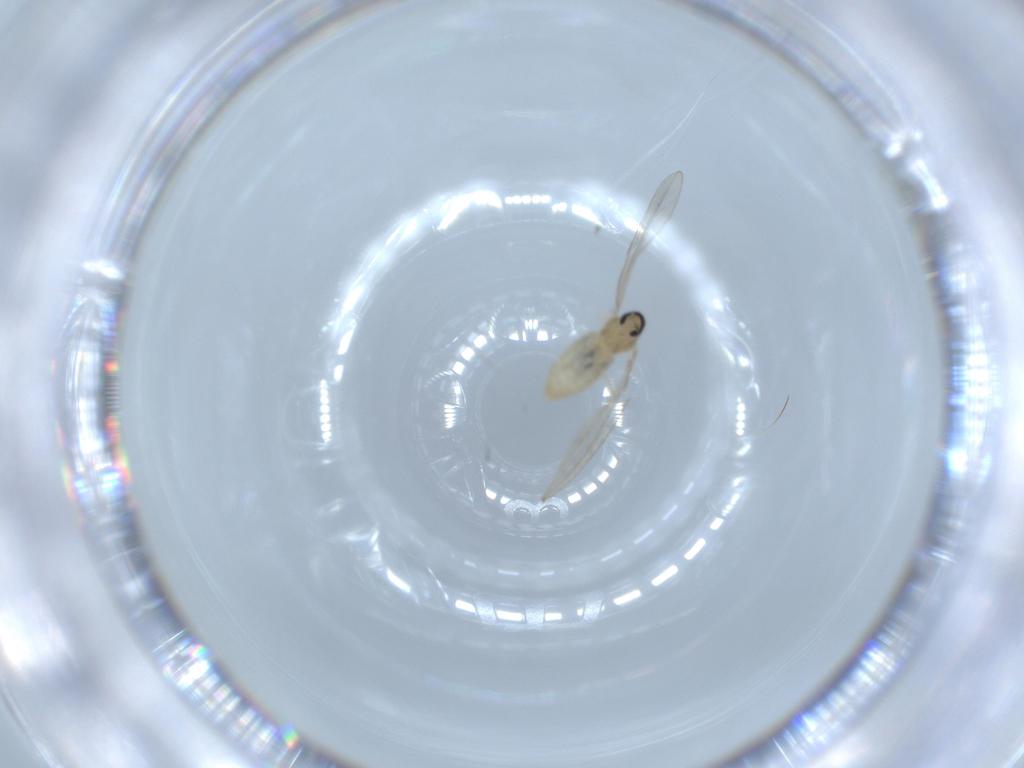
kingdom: Animalia
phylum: Arthropoda
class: Insecta
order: Diptera
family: Cecidomyiidae
